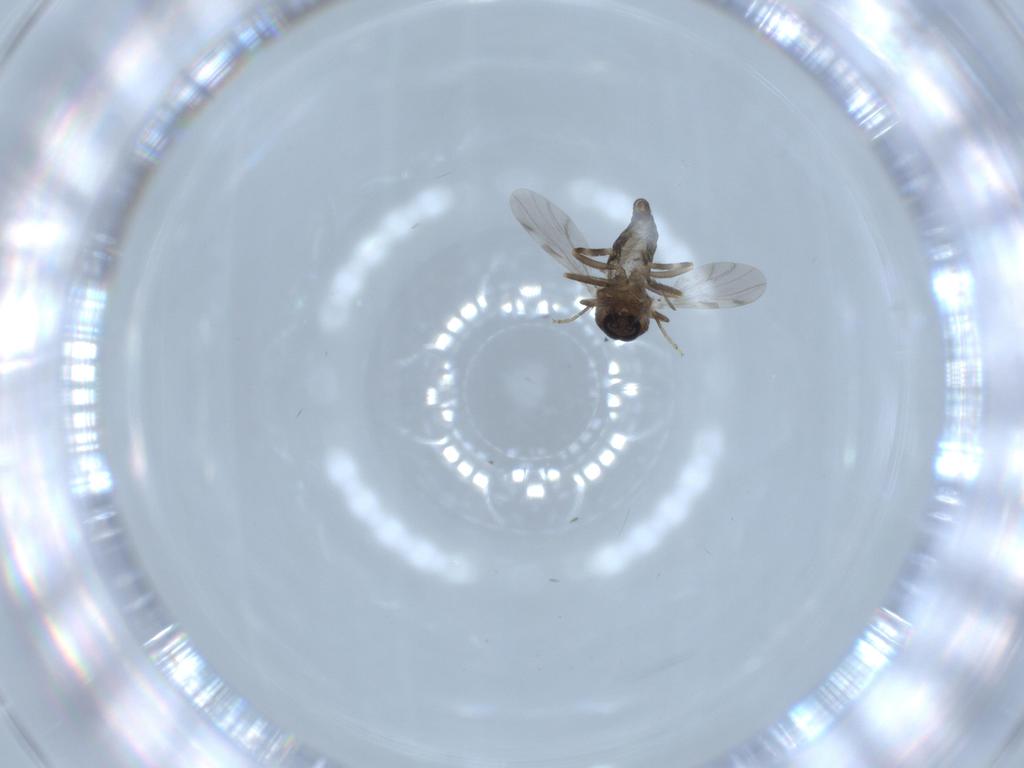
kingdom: Animalia
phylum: Arthropoda
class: Insecta
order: Diptera
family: Ceratopogonidae
